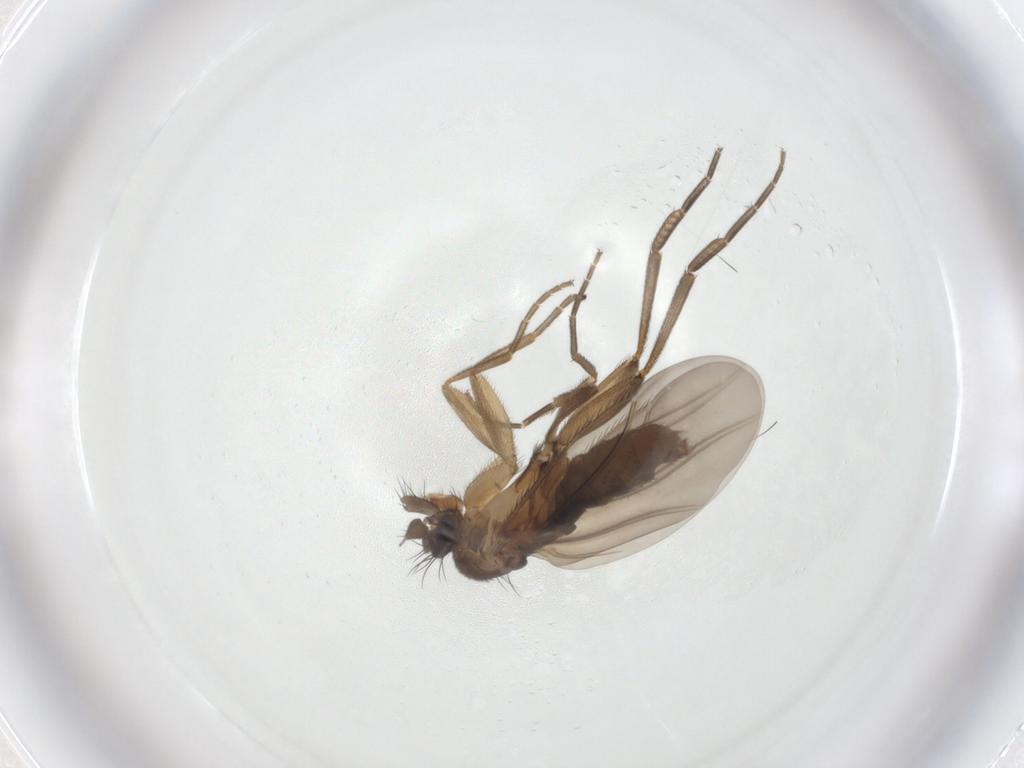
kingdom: Animalia
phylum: Arthropoda
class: Insecta
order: Diptera
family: Phoridae
